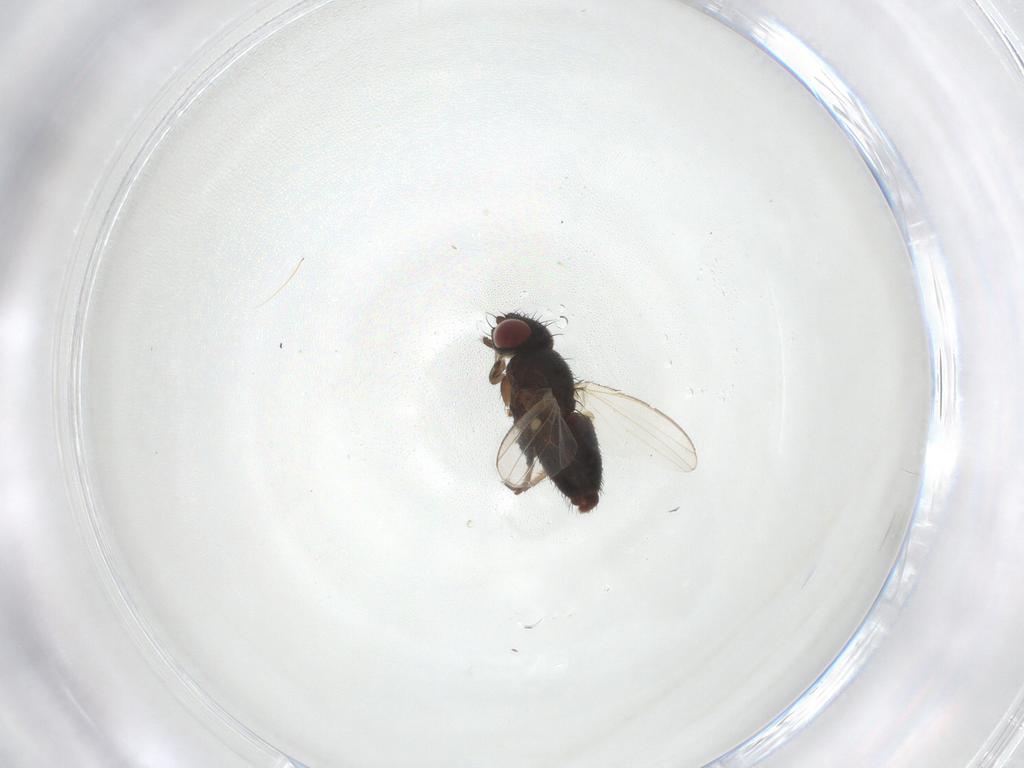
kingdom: Animalia
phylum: Arthropoda
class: Insecta
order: Diptera
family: Milichiidae
